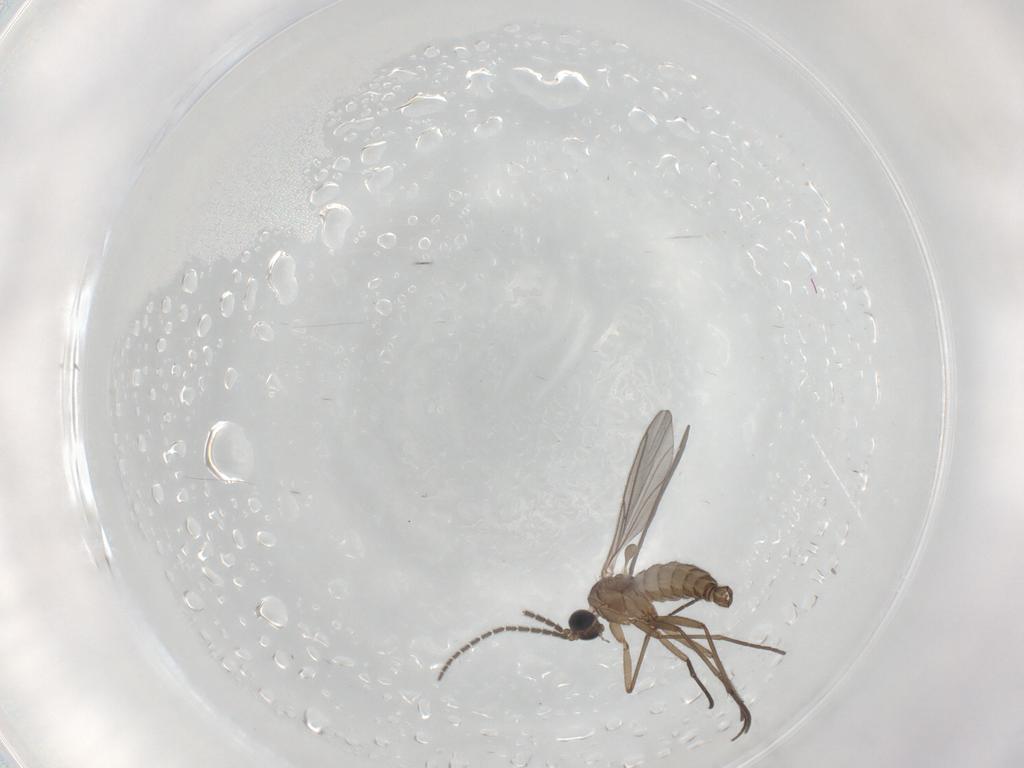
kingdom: Animalia
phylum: Arthropoda
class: Insecta
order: Diptera
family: Sciaridae
